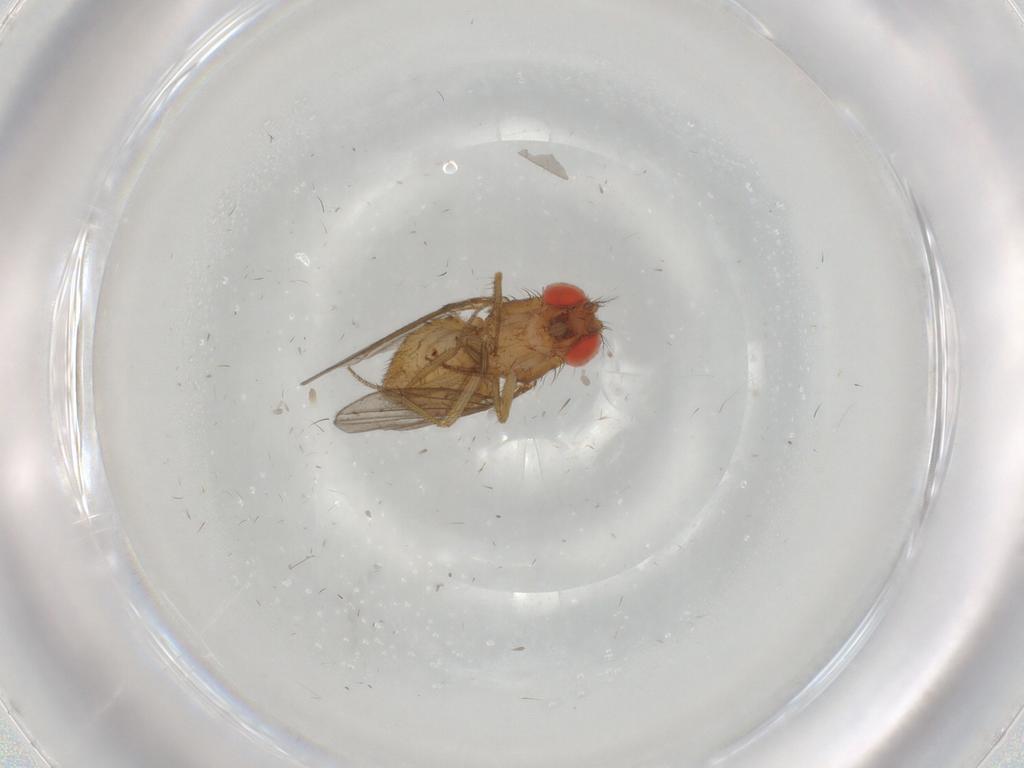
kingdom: Animalia
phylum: Arthropoda
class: Insecta
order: Diptera
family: Drosophilidae
